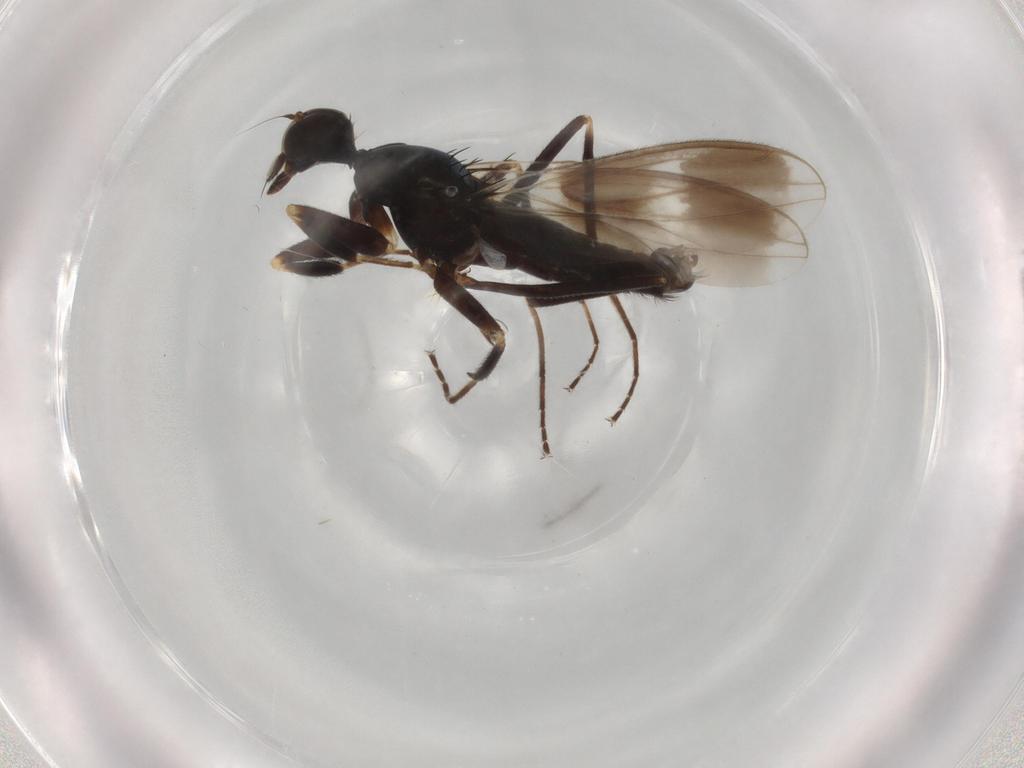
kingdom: Animalia
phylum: Arthropoda
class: Insecta
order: Diptera
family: Hybotidae
